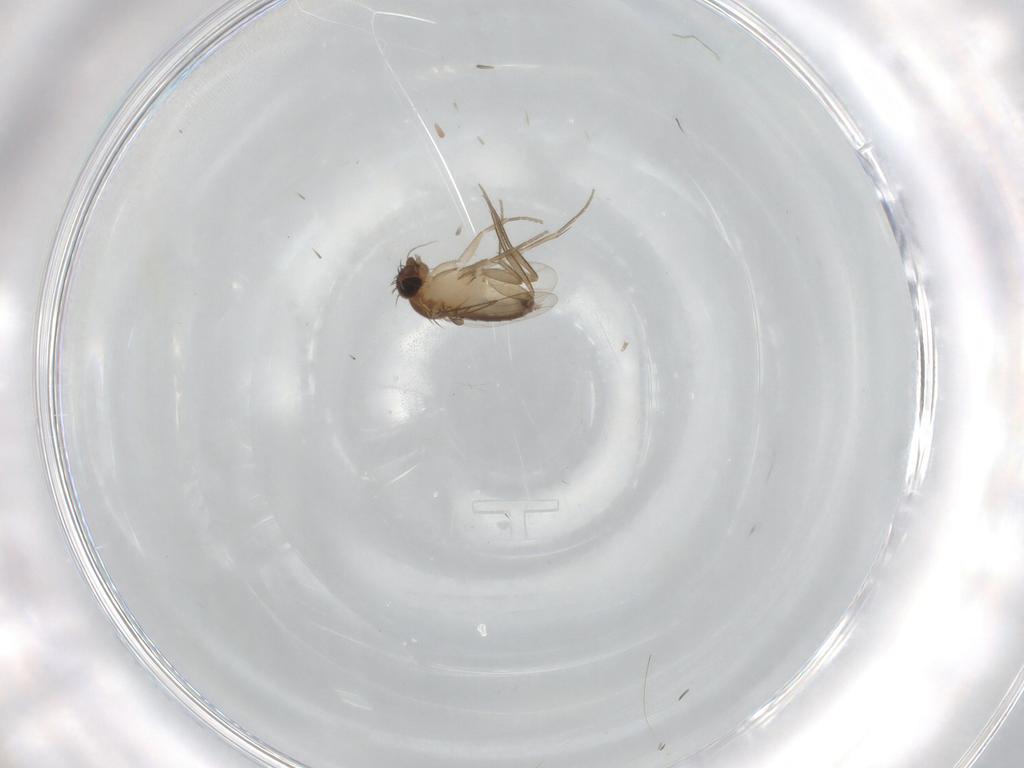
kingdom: Animalia
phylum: Arthropoda
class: Insecta
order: Diptera
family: Phoridae
